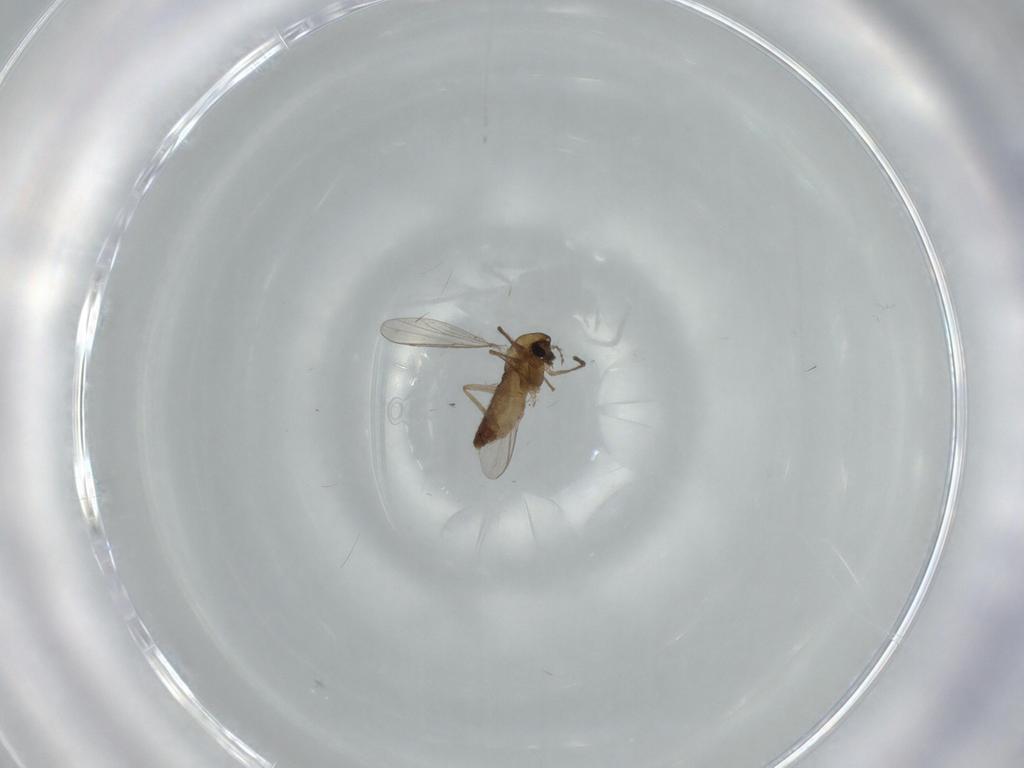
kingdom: Animalia
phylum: Arthropoda
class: Insecta
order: Diptera
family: Chironomidae
